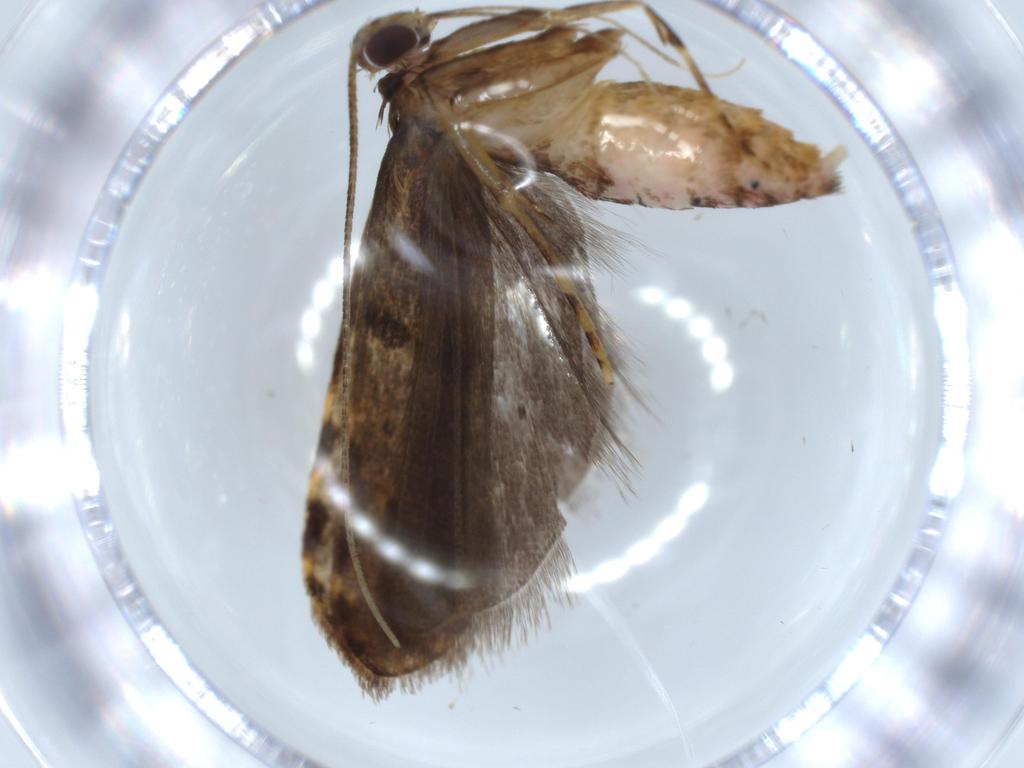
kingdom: Animalia
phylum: Arthropoda
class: Insecta
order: Lepidoptera
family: Autostichidae
